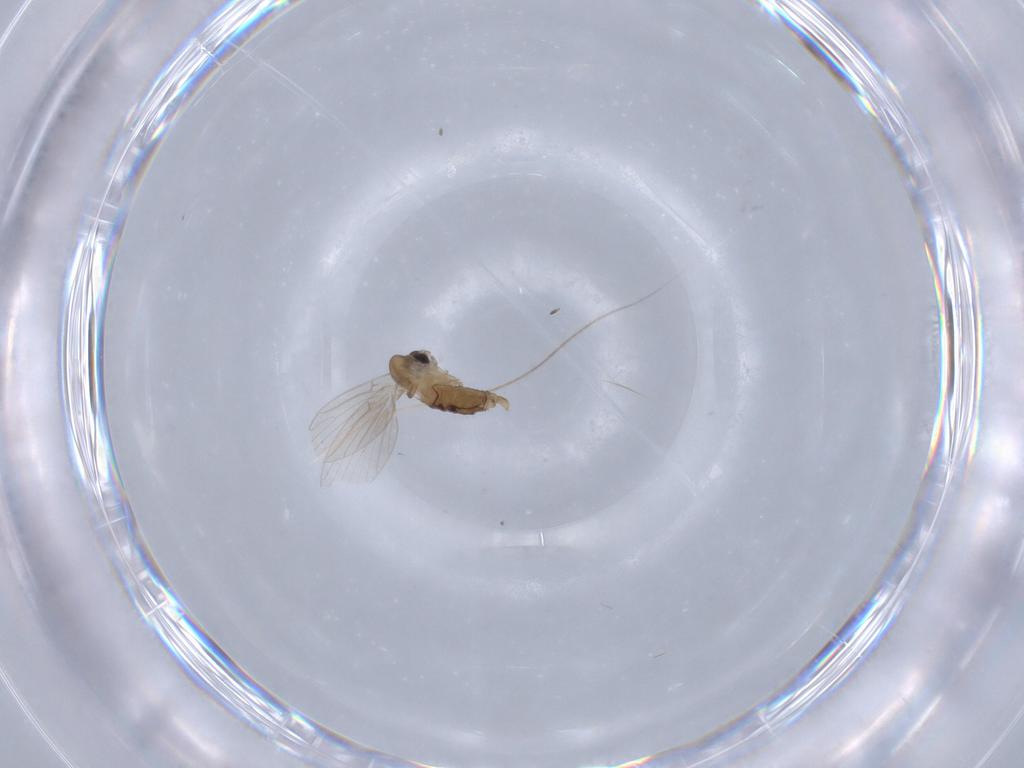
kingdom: Animalia
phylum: Arthropoda
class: Insecta
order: Diptera
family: Psychodidae
